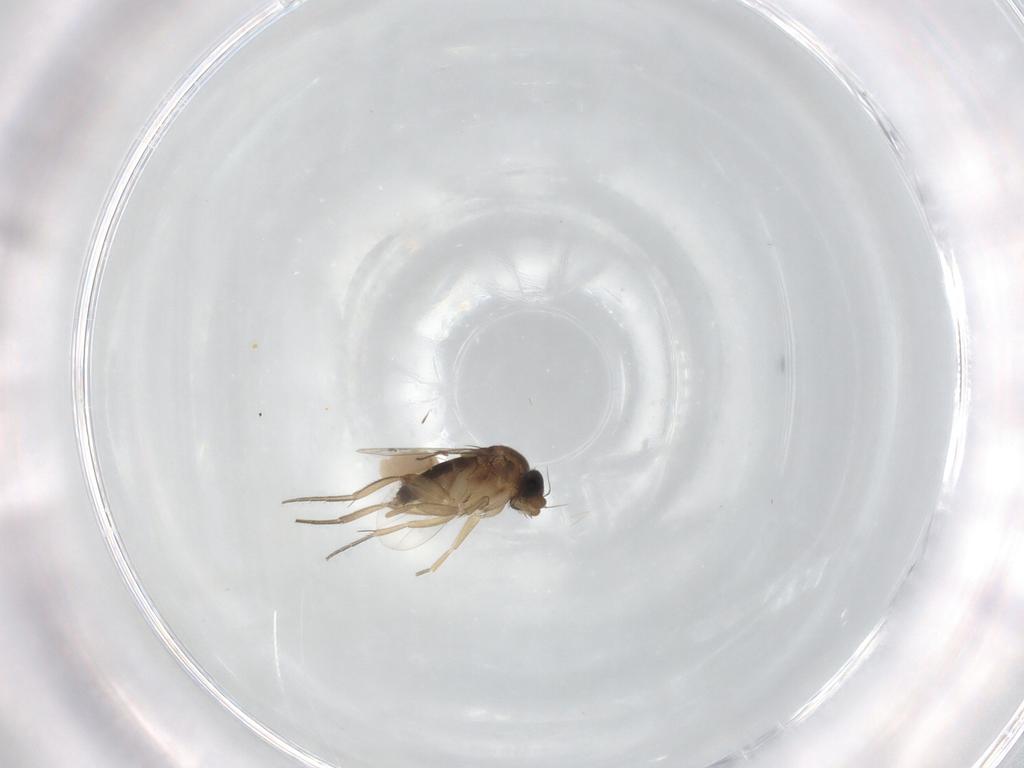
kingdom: Animalia
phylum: Arthropoda
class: Insecta
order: Diptera
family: Phoridae
